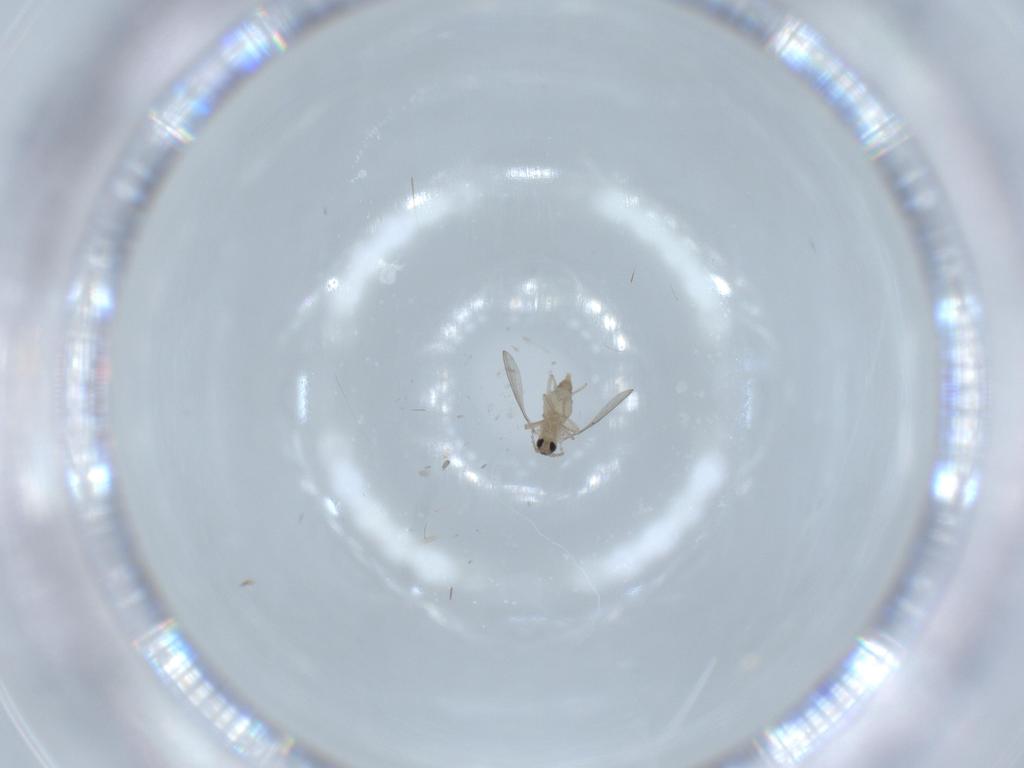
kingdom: Animalia
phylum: Arthropoda
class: Insecta
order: Diptera
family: Cecidomyiidae
